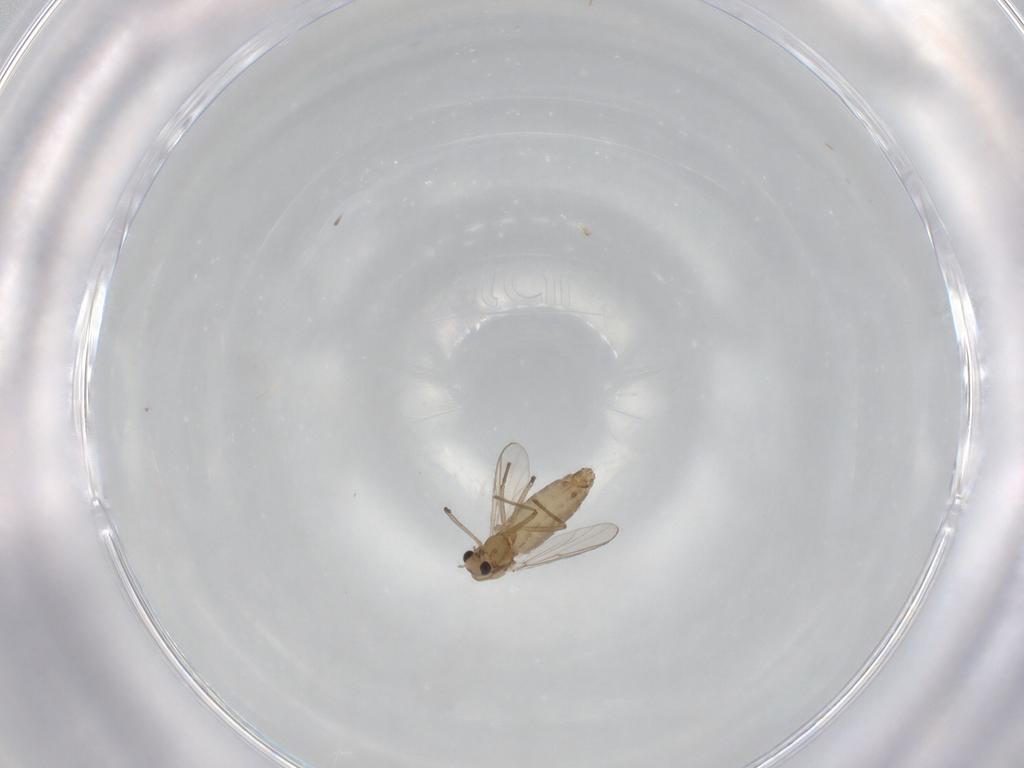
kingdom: Animalia
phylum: Arthropoda
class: Insecta
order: Diptera
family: Chironomidae
